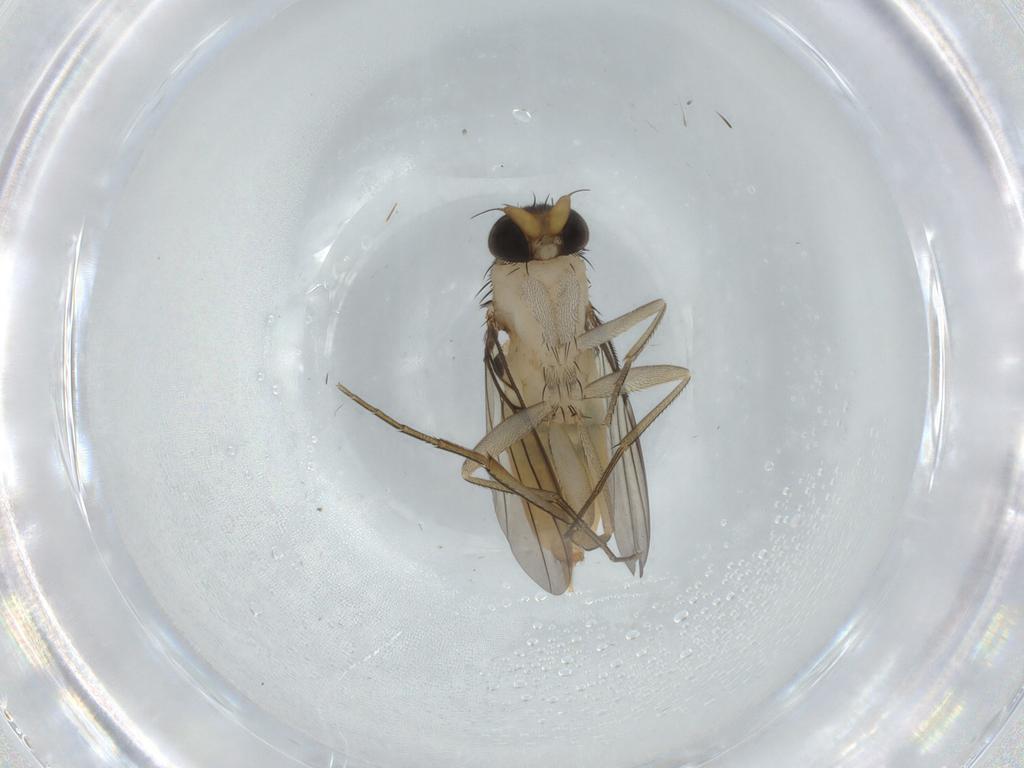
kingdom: Animalia
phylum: Arthropoda
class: Insecta
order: Diptera
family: Phoridae
